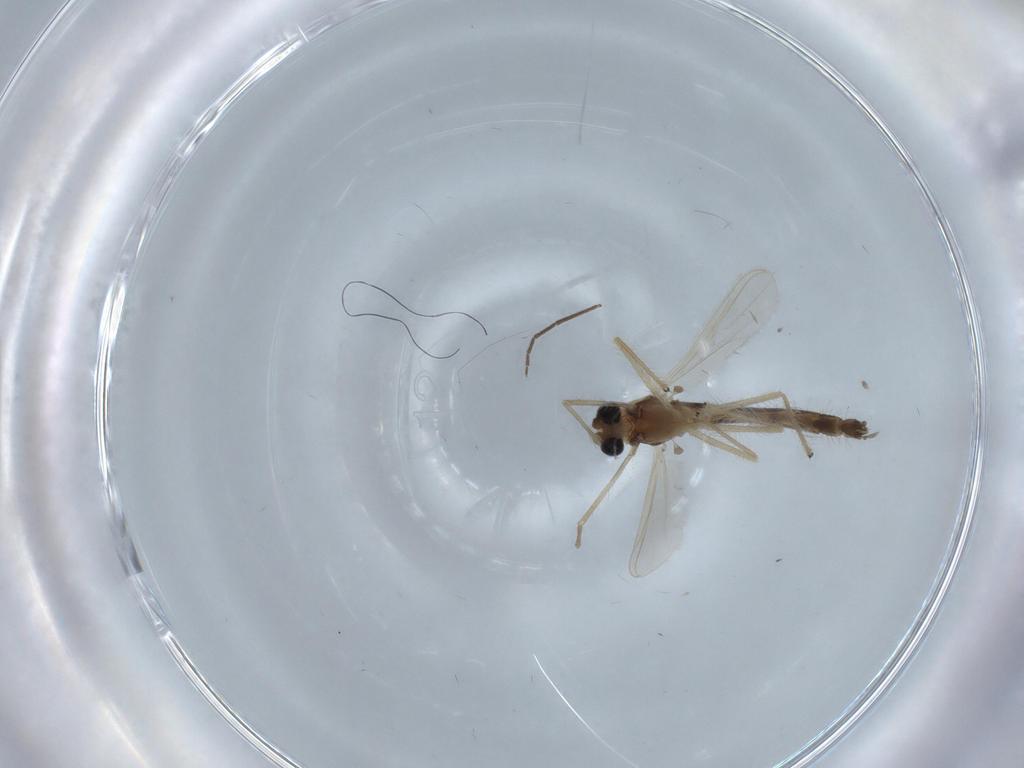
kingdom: Animalia
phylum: Arthropoda
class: Insecta
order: Diptera
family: Chironomidae
